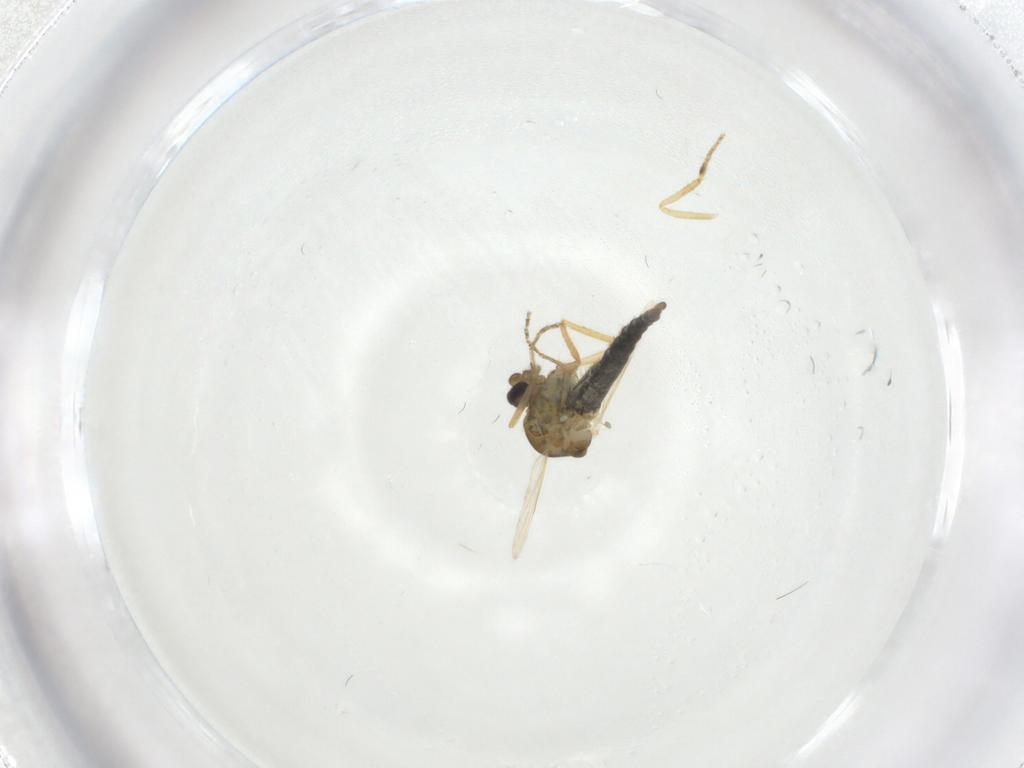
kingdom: Animalia
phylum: Arthropoda
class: Insecta
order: Diptera
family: Ceratopogonidae
